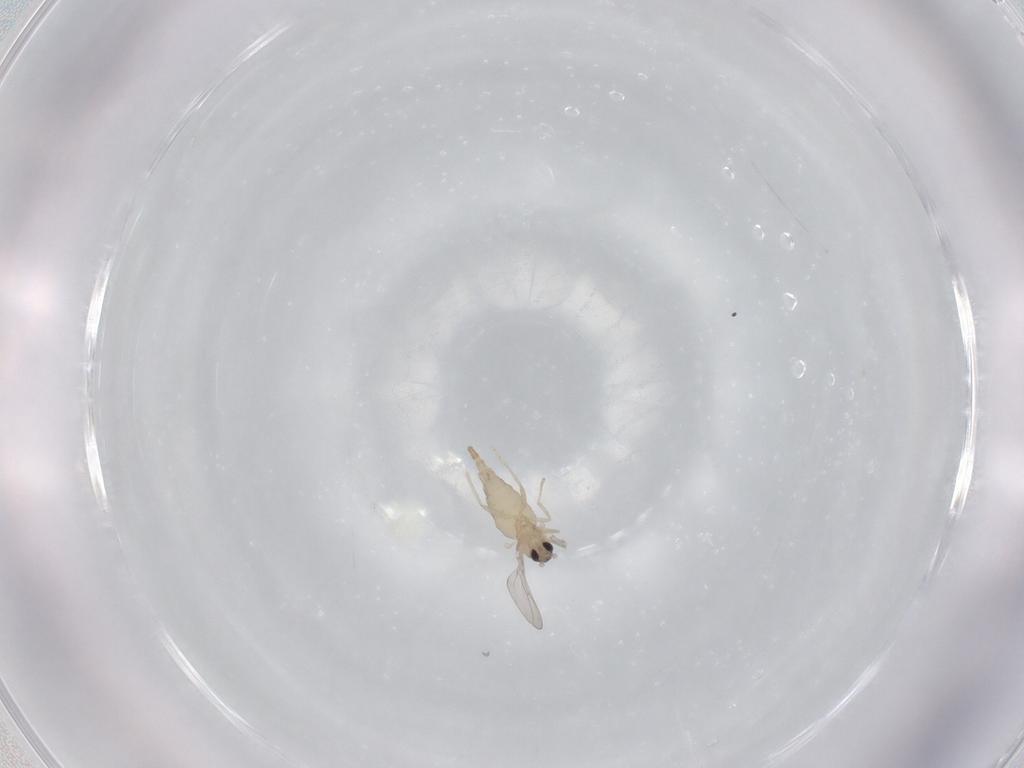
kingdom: Animalia
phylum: Arthropoda
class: Insecta
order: Diptera
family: Cecidomyiidae
